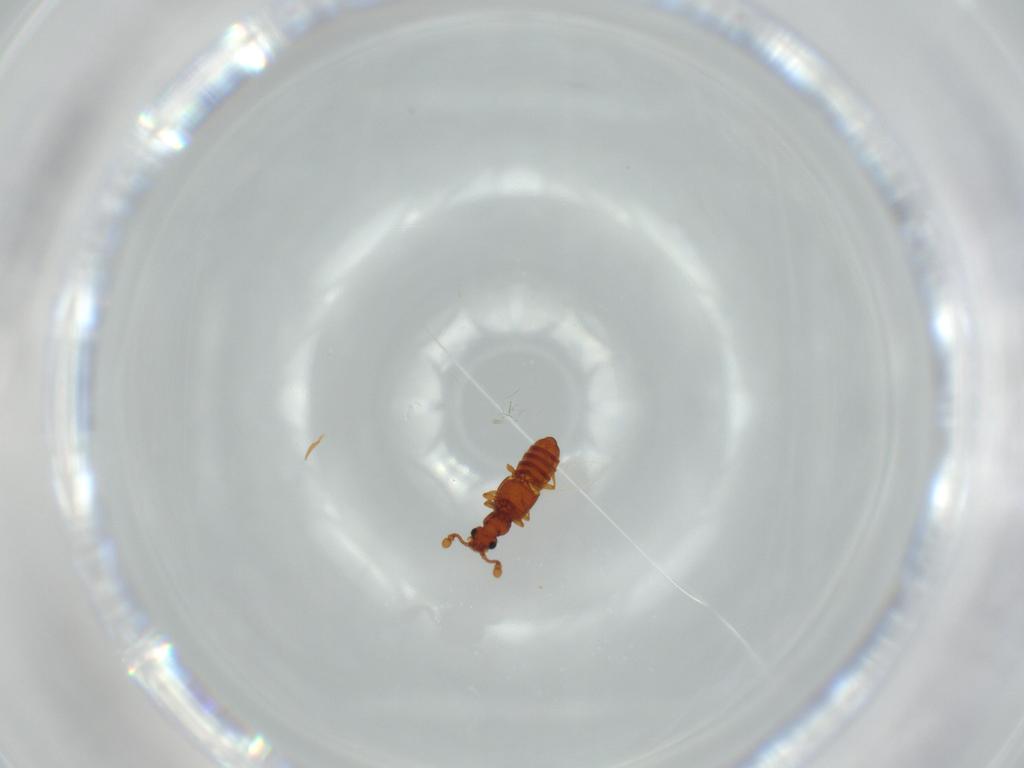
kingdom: Animalia
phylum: Arthropoda
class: Insecta
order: Coleoptera
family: Staphylinidae
